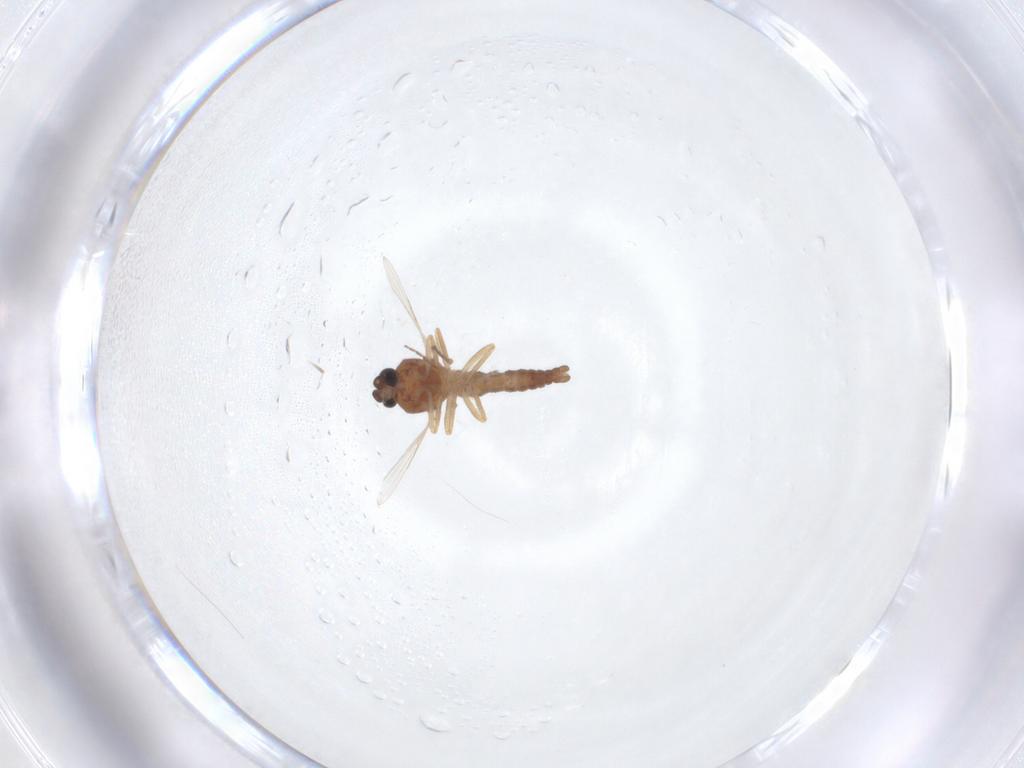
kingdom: Animalia
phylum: Arthropoda
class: Insecta
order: Diptera
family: Ceratopogonidae
